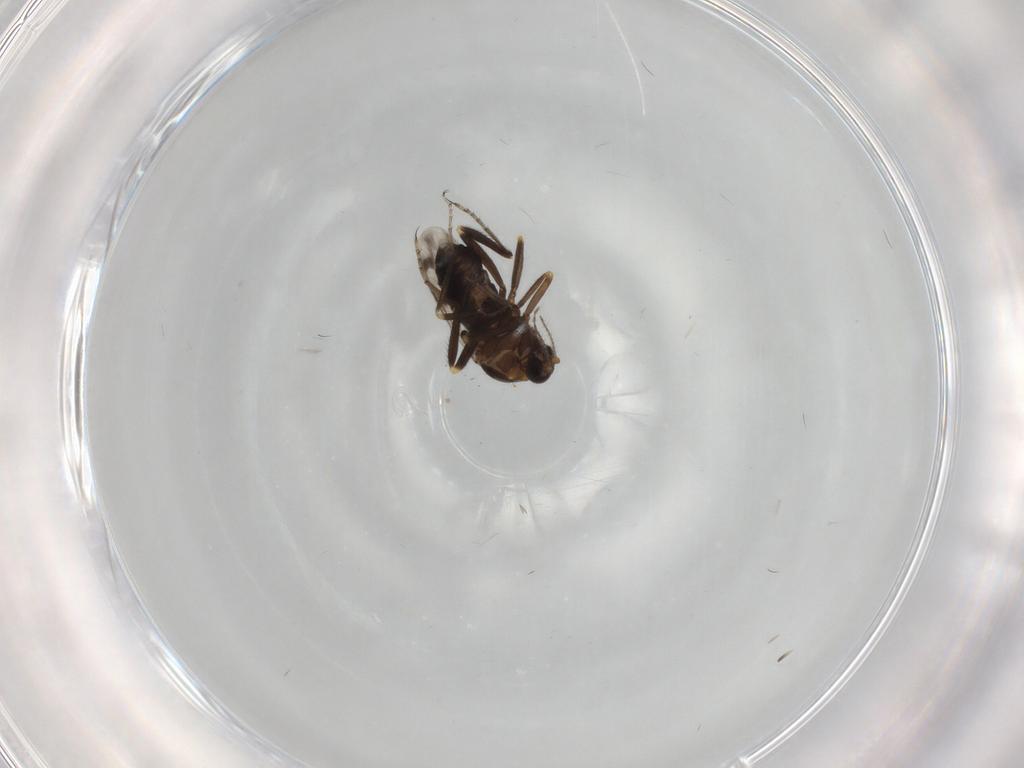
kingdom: Animalia
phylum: Arthropoda
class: Insecta
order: Diptera
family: Ceratopogonidae
